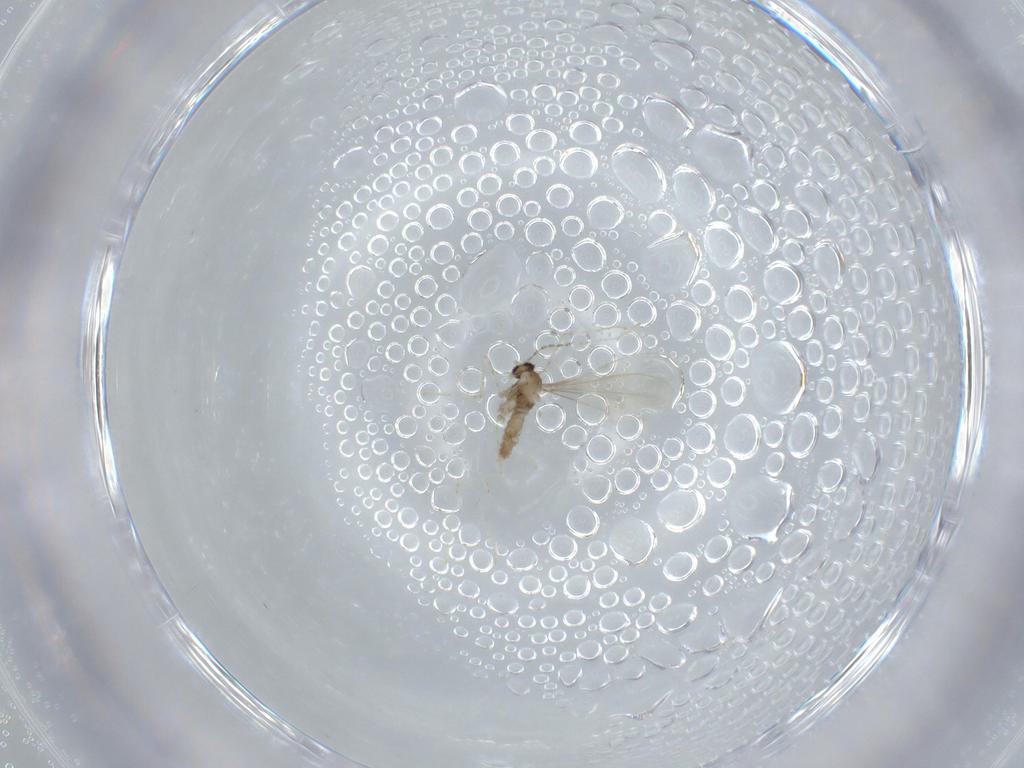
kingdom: Animalia
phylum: Arthropoda
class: Insecta
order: Diptera
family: Cecidomyiidae
